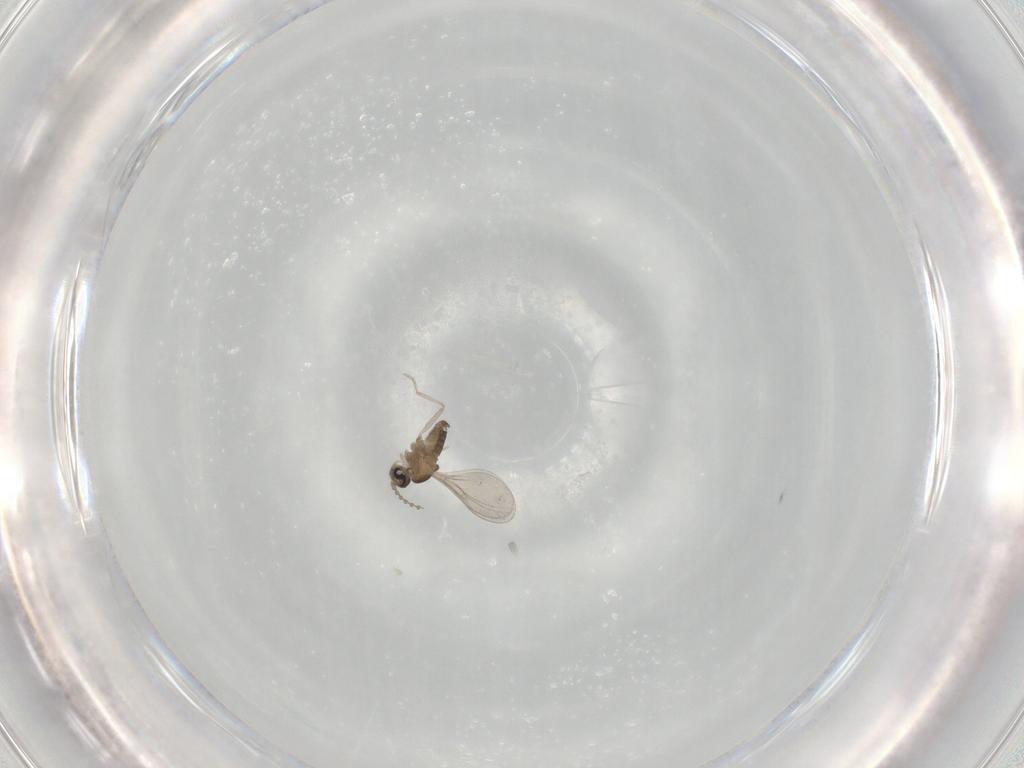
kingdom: Animalia
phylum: Arthropoda
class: Insecta
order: Diptera
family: Cecidomyiidae
